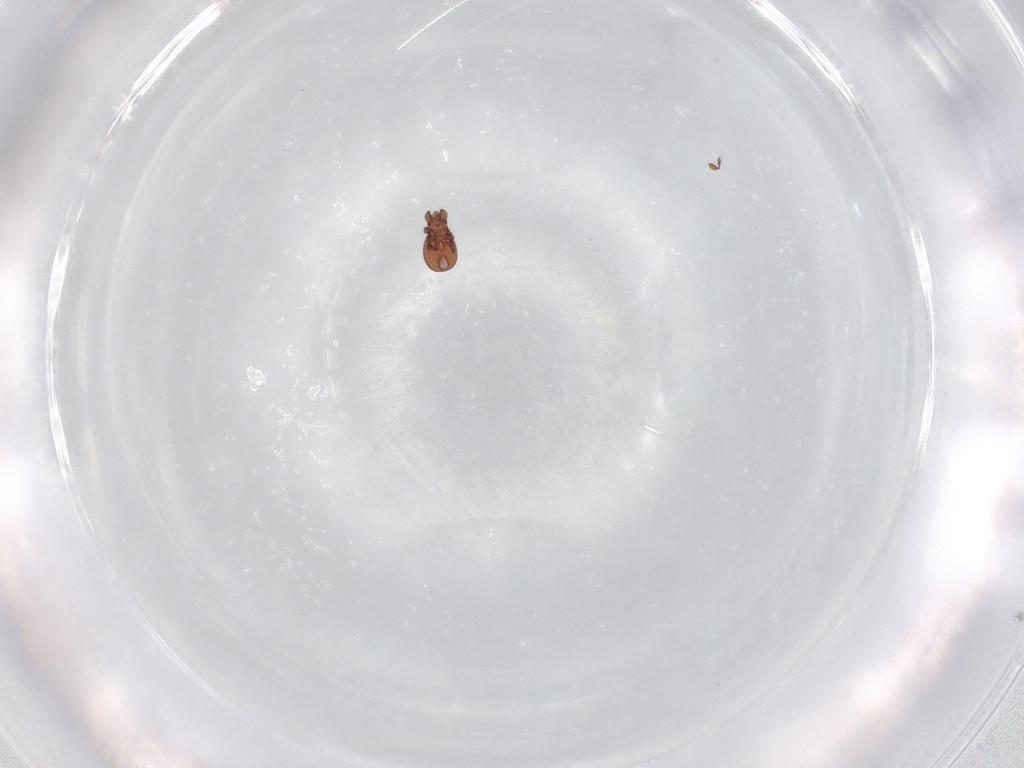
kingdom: Animalia
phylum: Arthropoda
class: Arachnida
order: Sarcoptiformes
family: Eremaeidae
